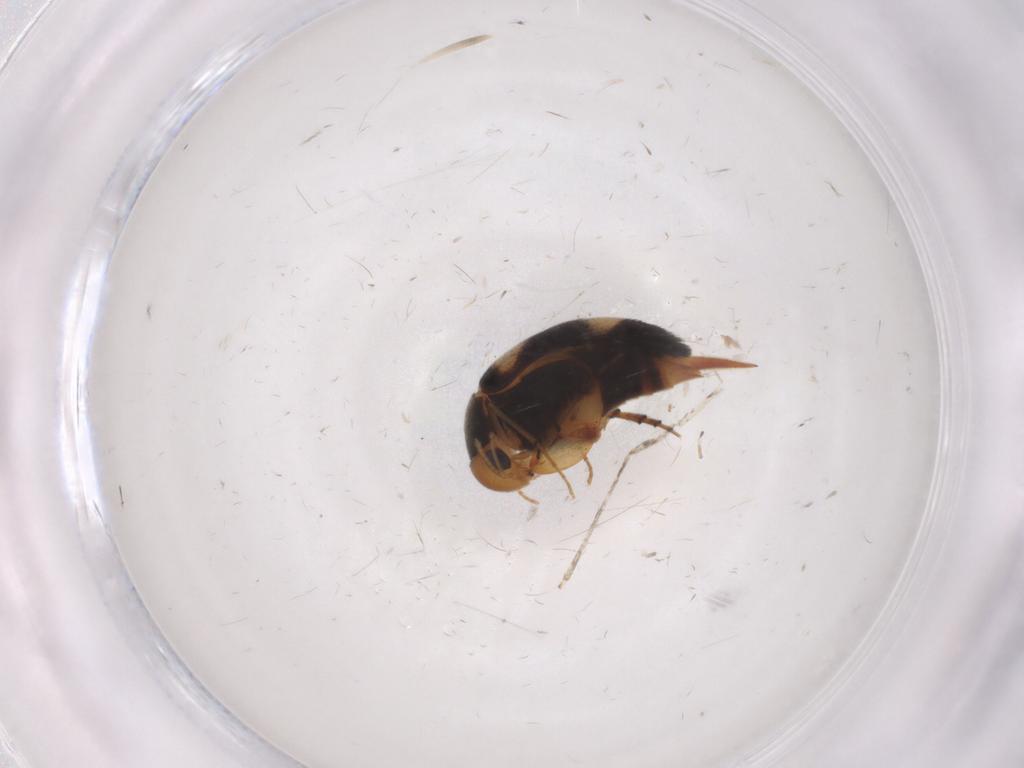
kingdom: Animalia
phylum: Arthropoda
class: Insecta
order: Coleoptera
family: Mordellidae
